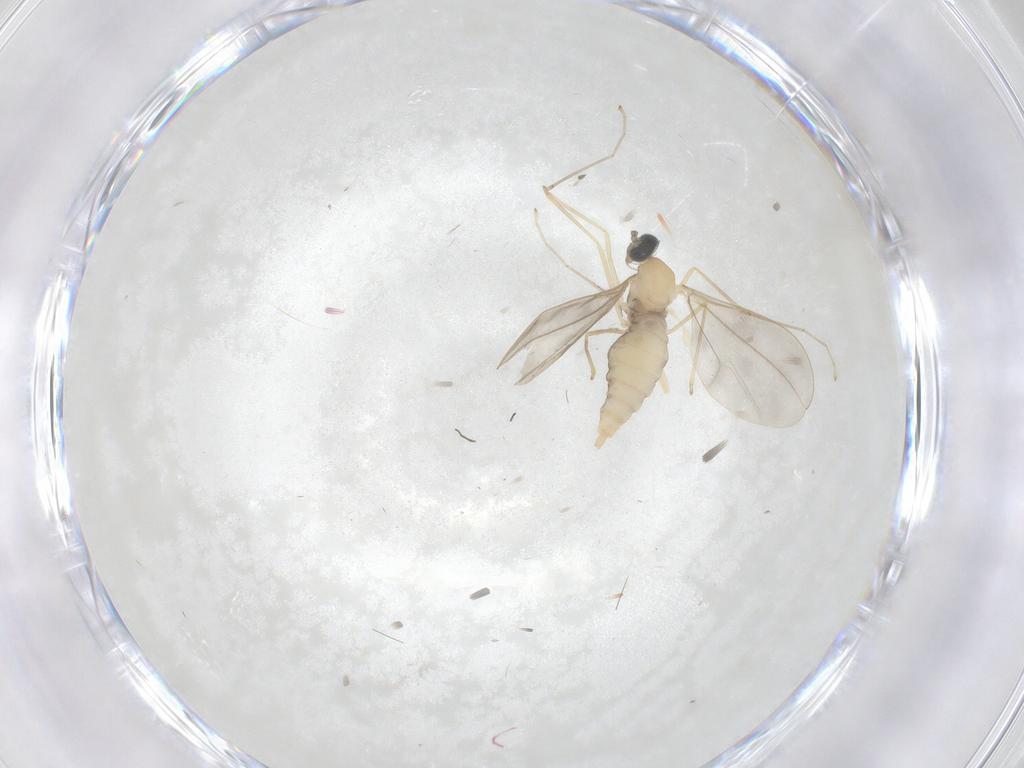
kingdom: Animalia
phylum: Arthropoda
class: Insecta
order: Diptera
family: Cecidomyiidae
